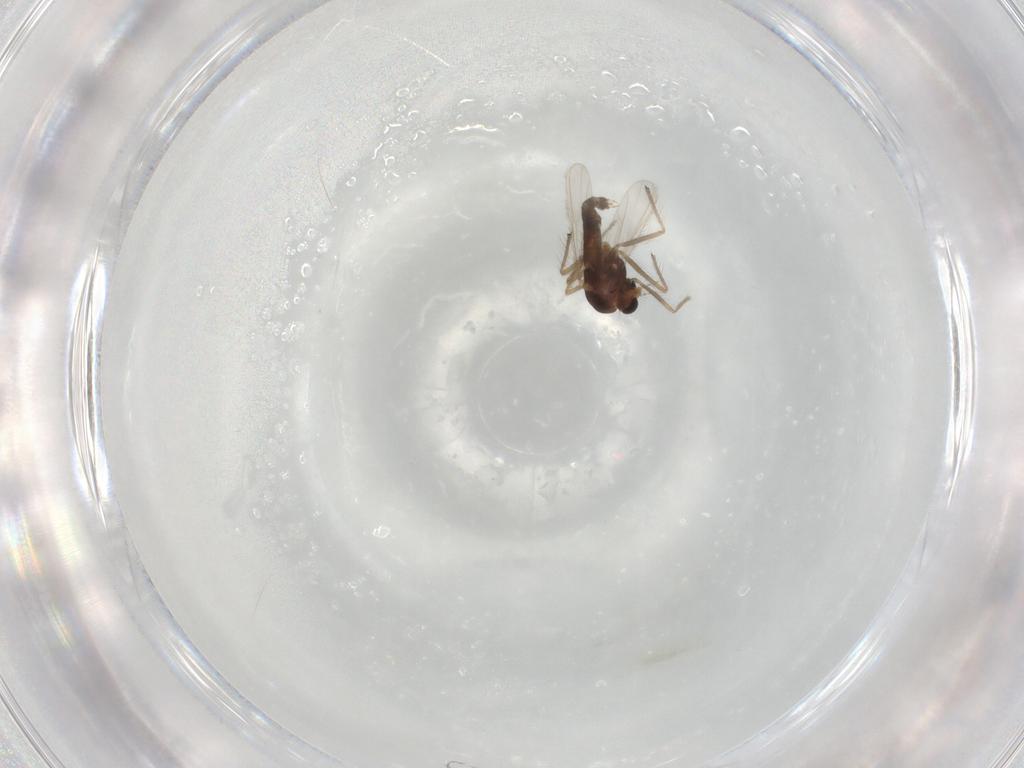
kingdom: Animalia
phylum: Arthropoda
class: Insecta
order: Diptera
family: Chironomidae
